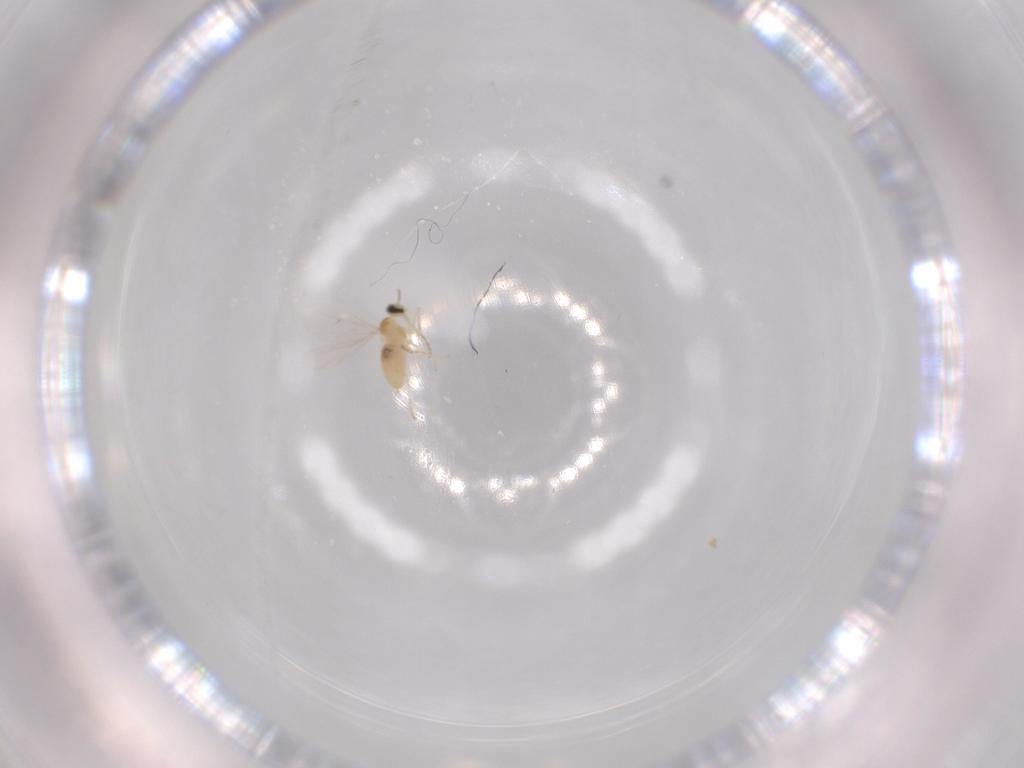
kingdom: Animalia
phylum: Arthropoda
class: Insecta
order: Diptera
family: Cecidomyiidae
